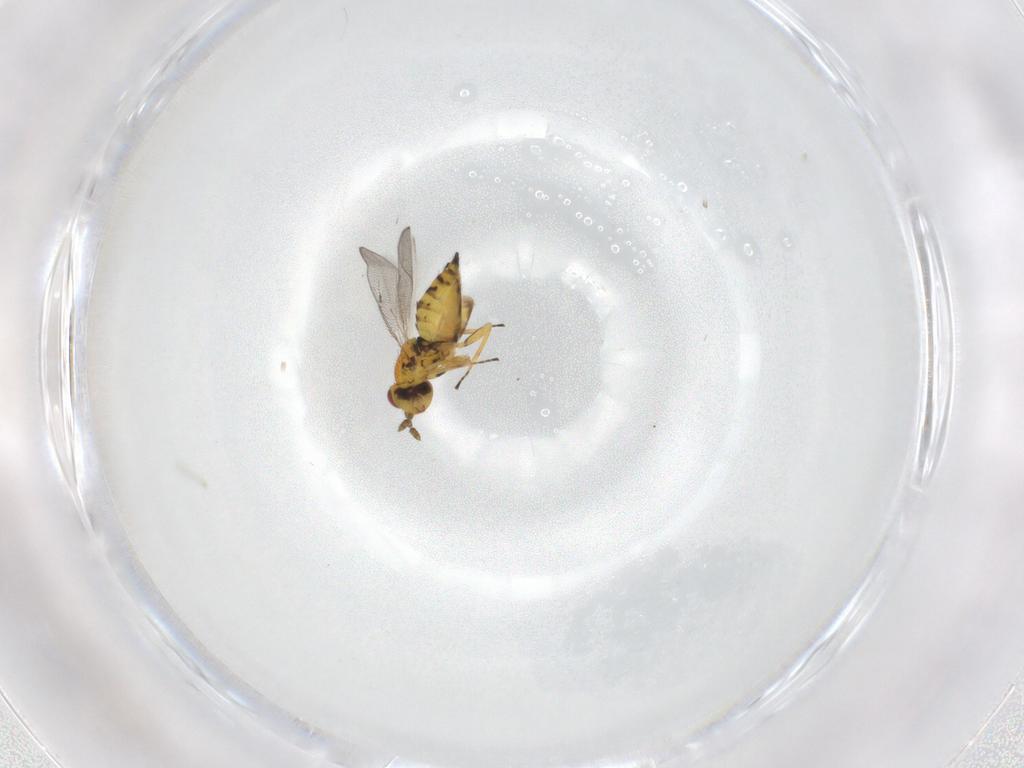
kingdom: Animalia
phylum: Arthropoda
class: Insecta
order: Hymenoptera
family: Eulophidae
